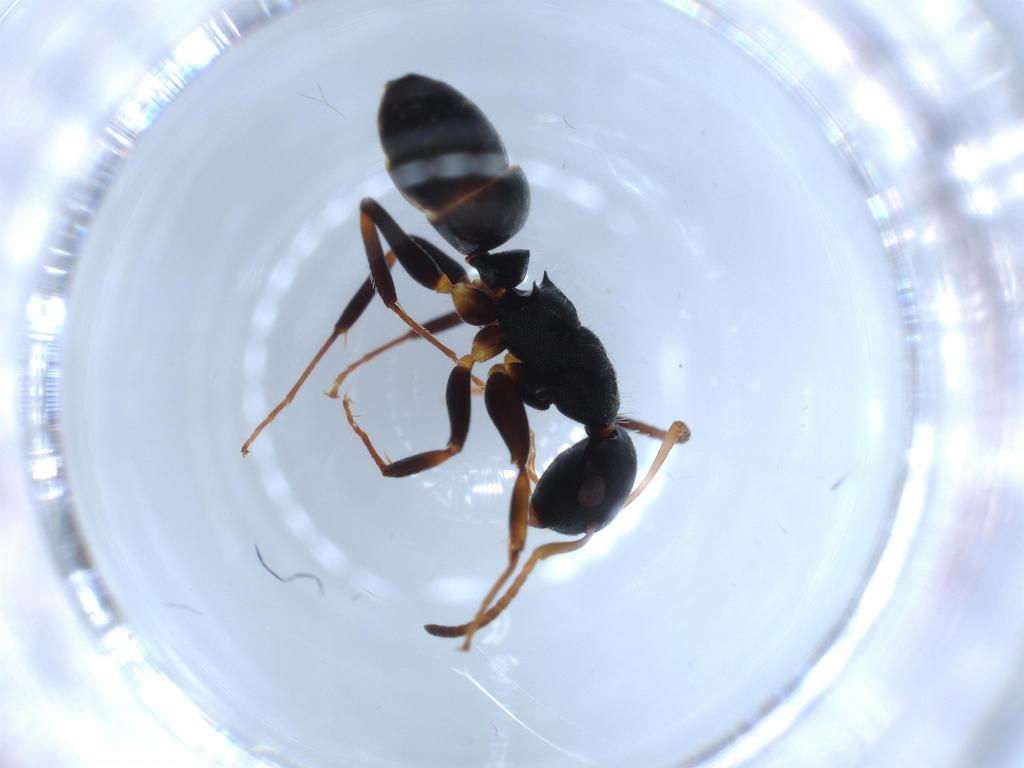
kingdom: Animalia
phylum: Arthropoda
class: Insecta
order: Hymenoptera
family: Formicidae
